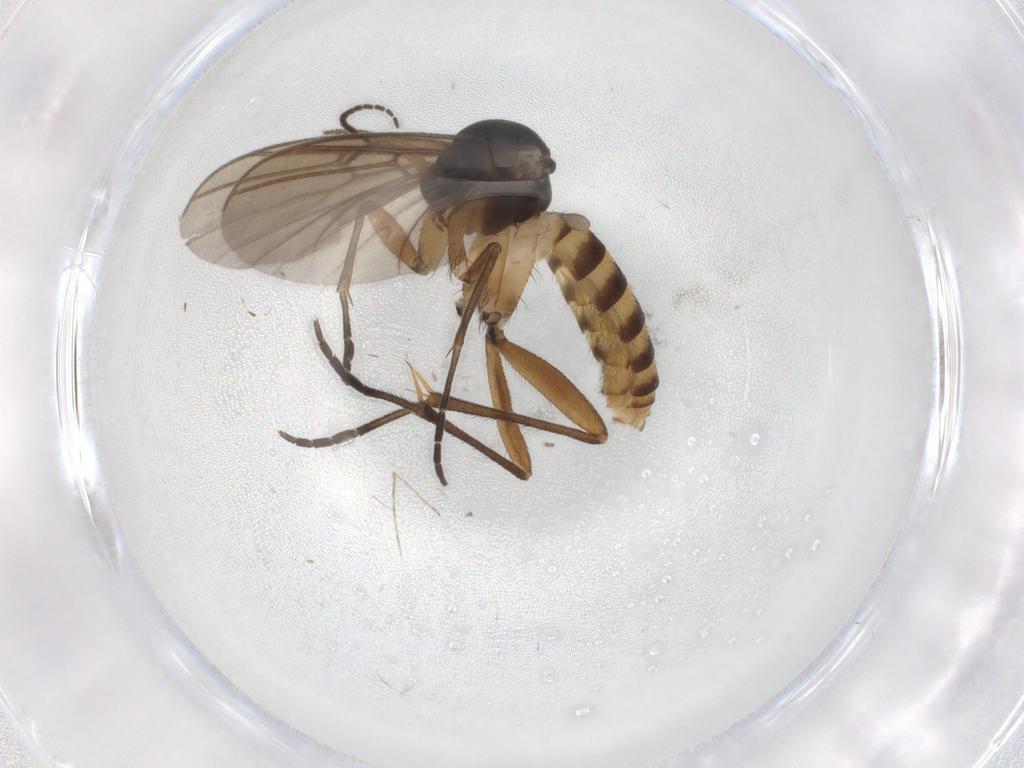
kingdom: Animalia
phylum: Arthropoda
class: Insecta
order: Diptera
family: Mycetophilidae
